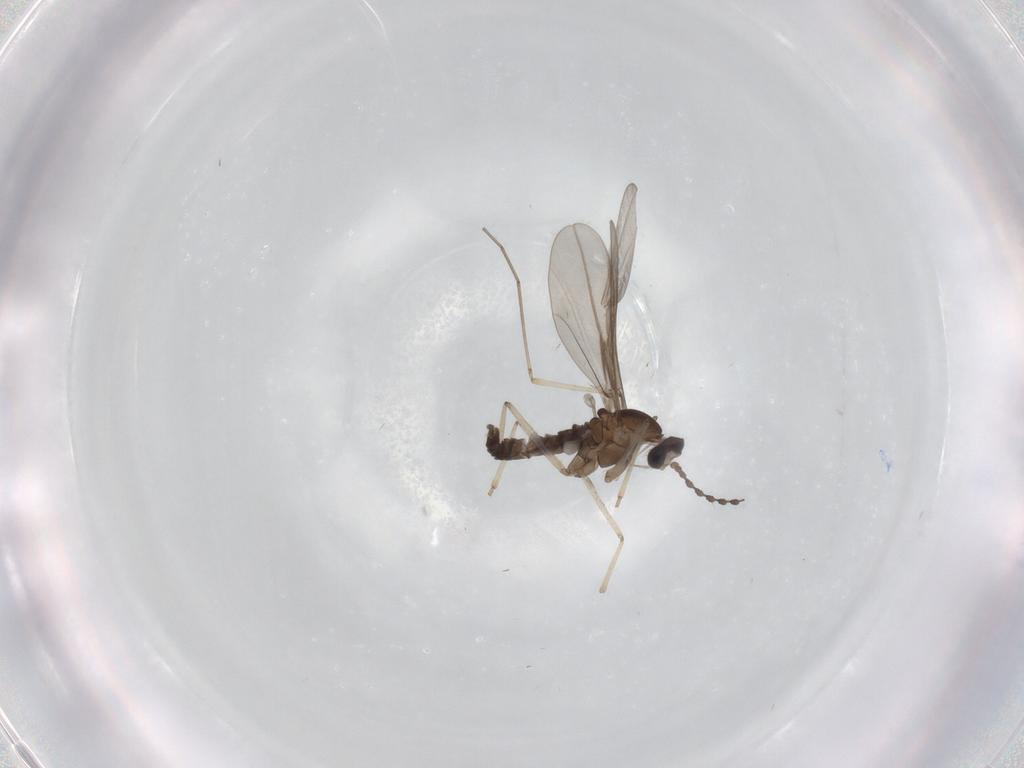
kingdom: Animalia
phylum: Arthropoda
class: Insecta
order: Diptera
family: Cecidomyiidae
